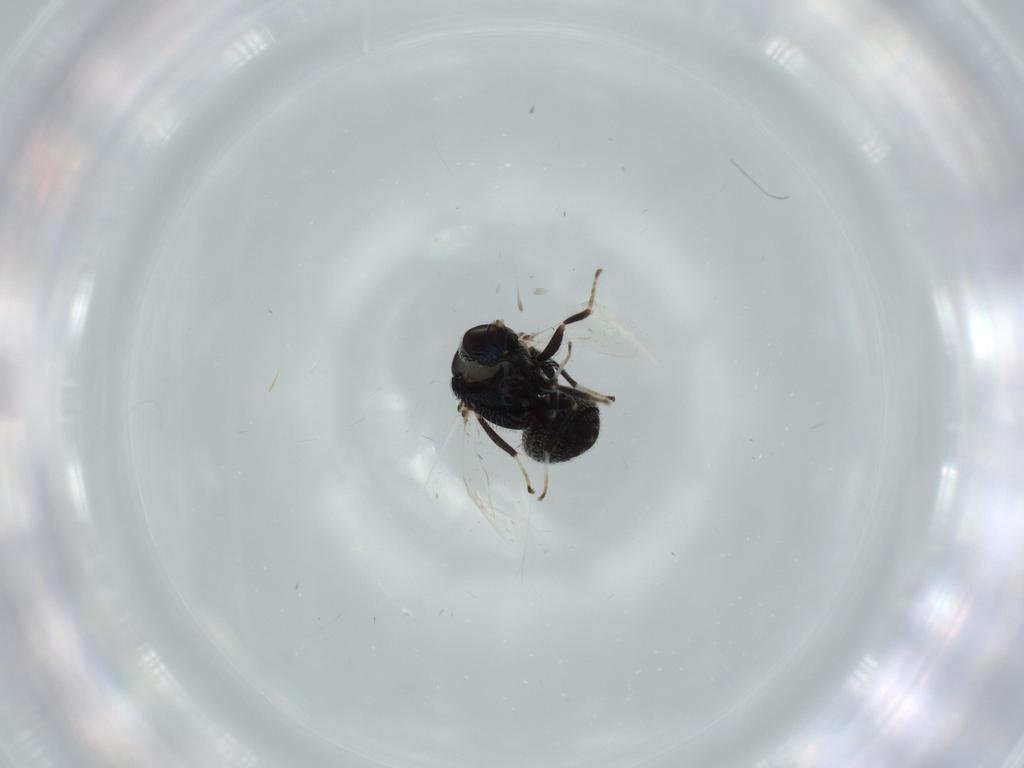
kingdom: Animalia
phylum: Arthropoda
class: Insecta
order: Hymenoptera
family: Pteromalidae
